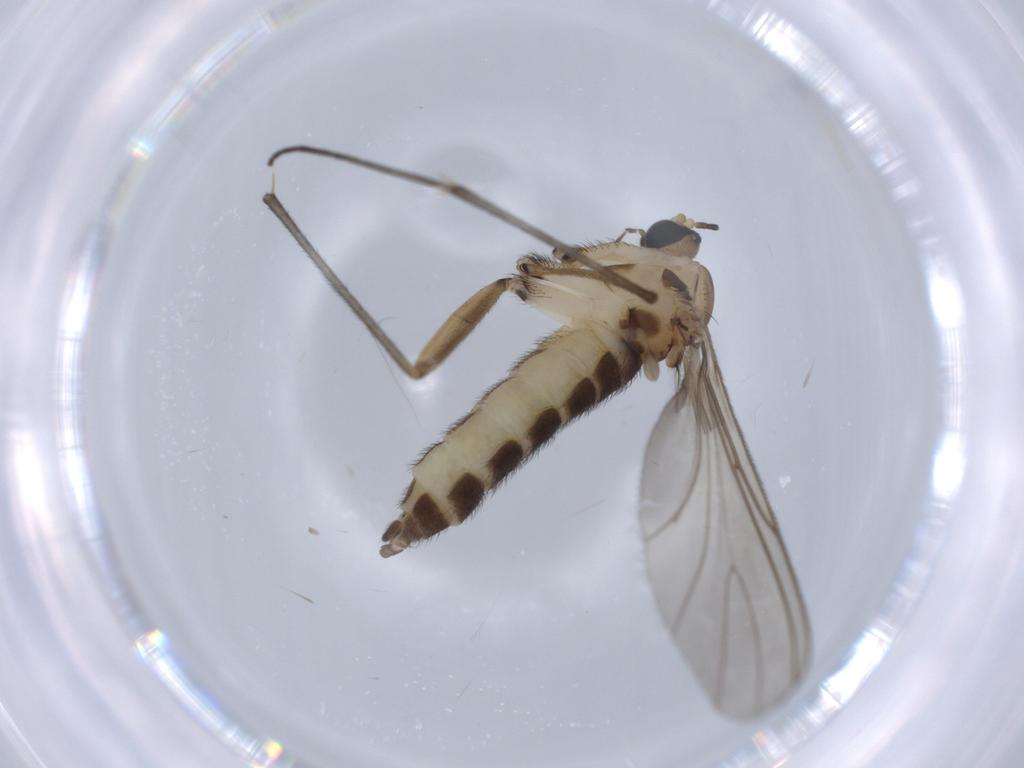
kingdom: Animalia
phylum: Arthropoda
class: Insecta
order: Diptera
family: Sciaridae
